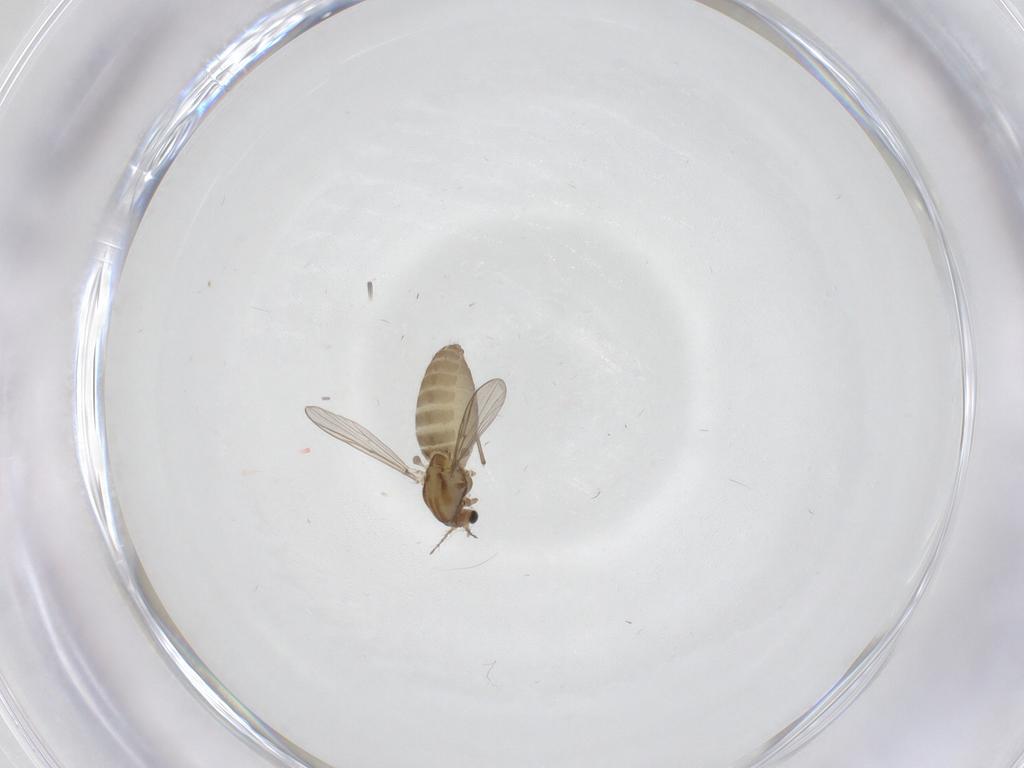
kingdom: Animalia
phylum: Arthropoda
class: Insecta
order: Diptera
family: Chironomidae
